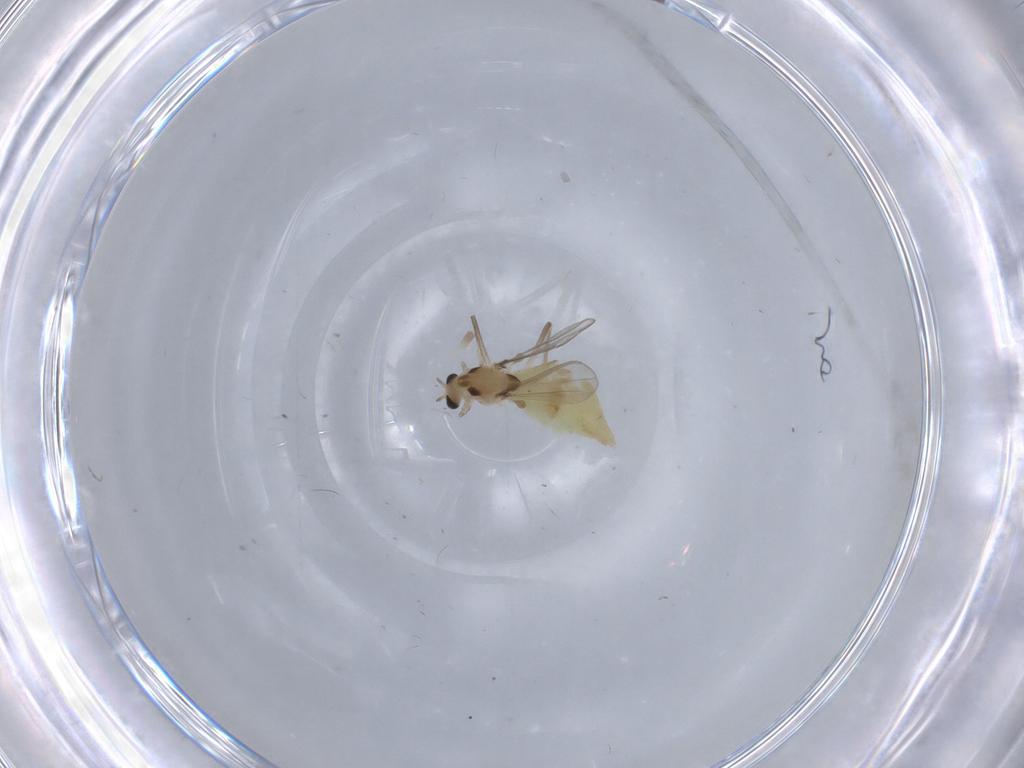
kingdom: Animalia
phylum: Arthropoda
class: Insecta
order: Diptera
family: Chironomidae
